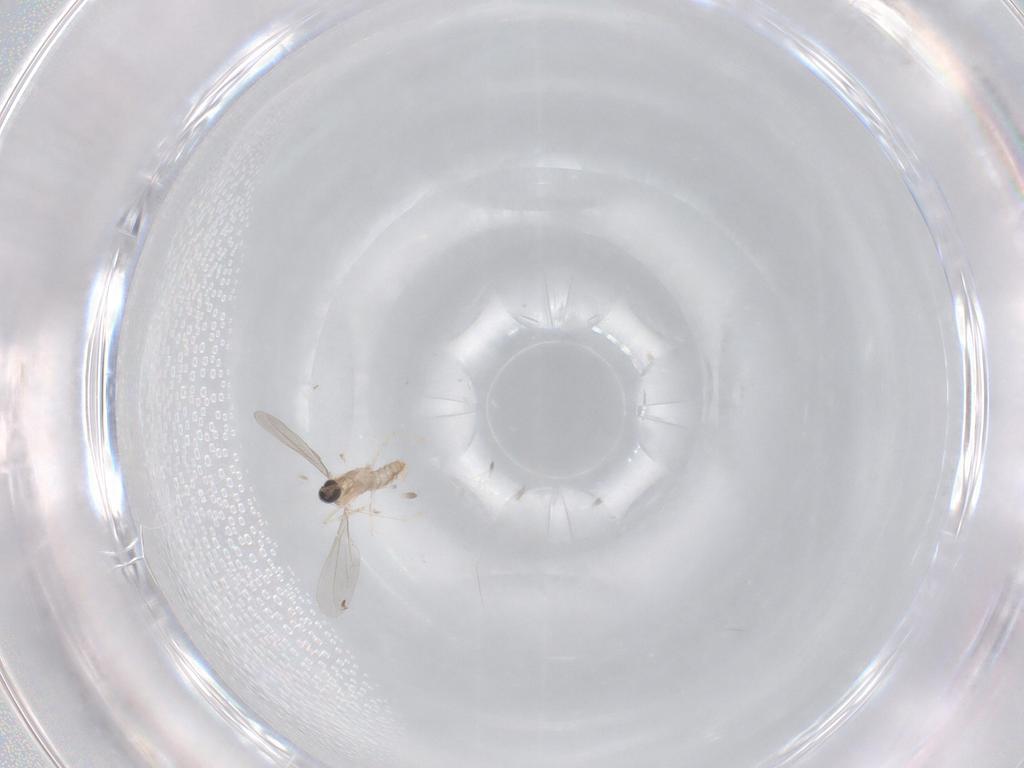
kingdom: Animalia
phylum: Arthropoda
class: Insecta
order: Diptera
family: Cecidomyiidae
